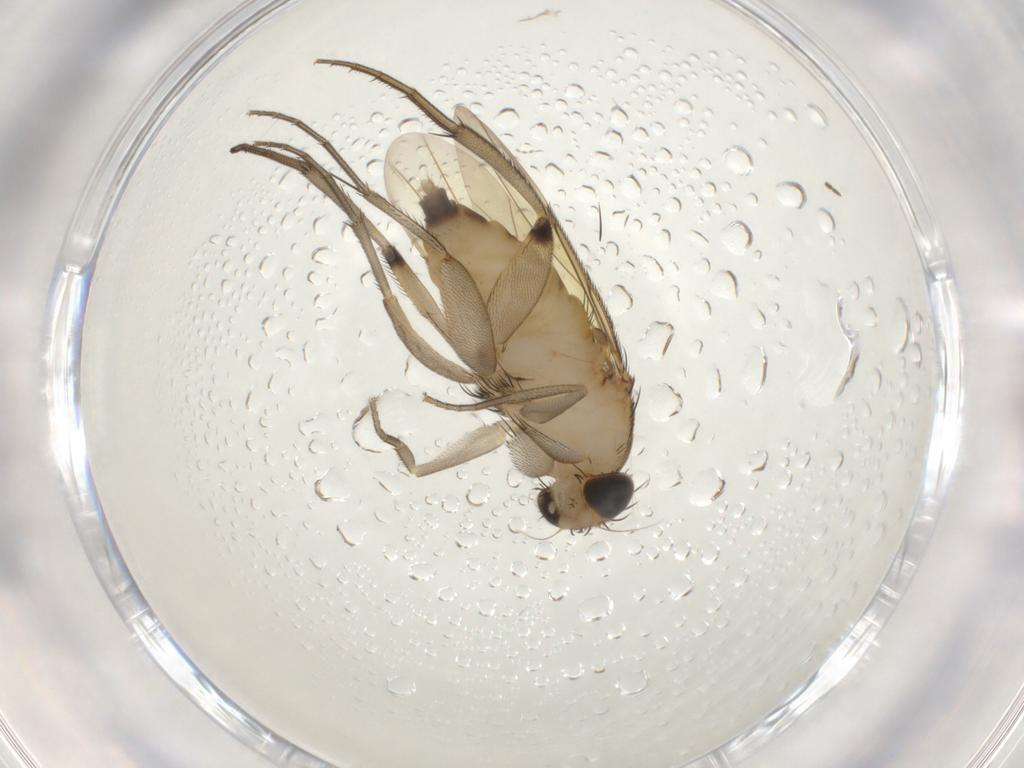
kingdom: Animalia
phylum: Arthropoda
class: Insecta
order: Diptera
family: Phoridae
